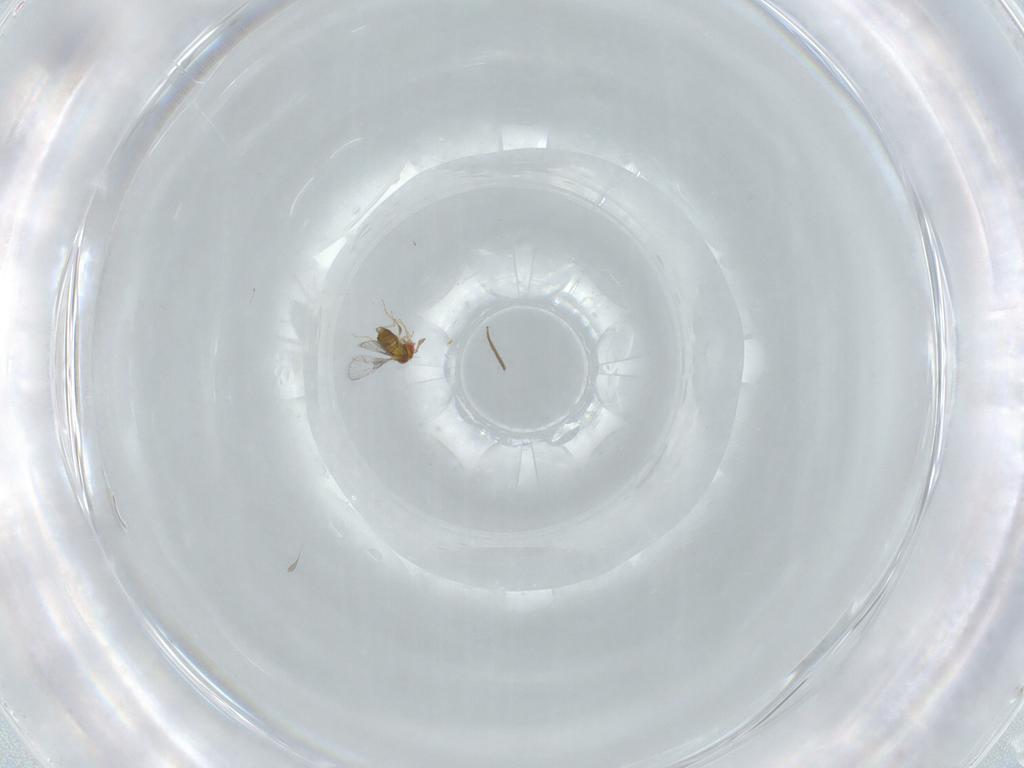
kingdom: Animalia
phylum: Arthropoda
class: Insecta
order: Hymenoptera
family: Trichogrammatidae
